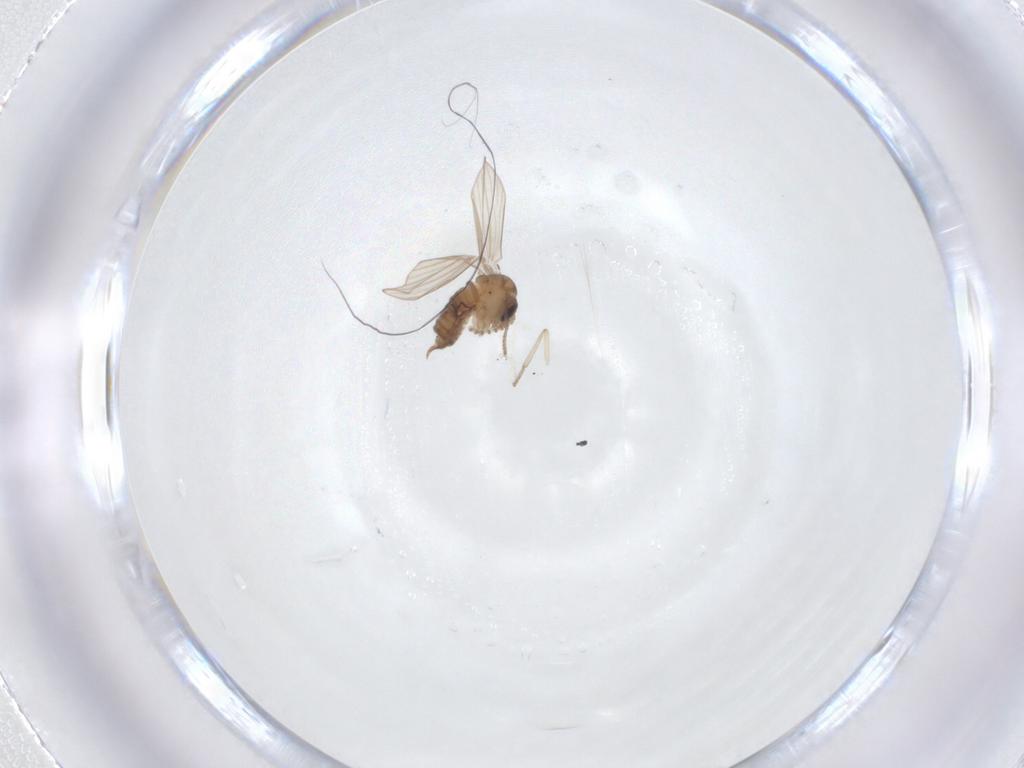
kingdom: Animalia
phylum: Arthropoda
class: Insecta
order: Diptera
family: Psychodidae
